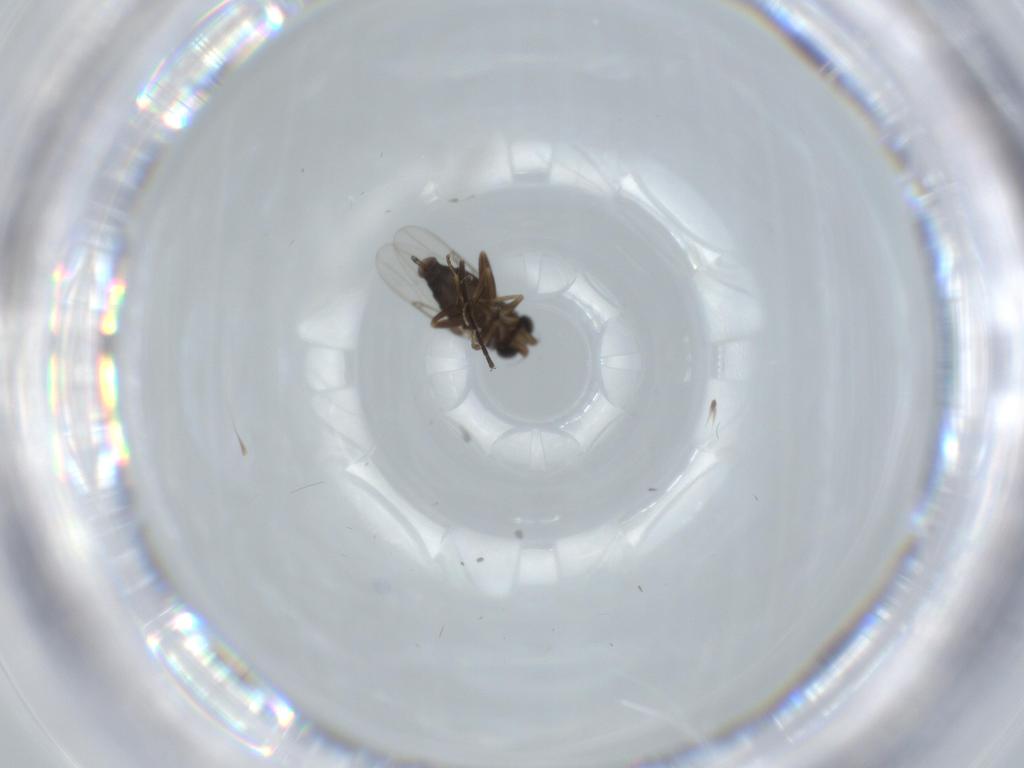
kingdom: Animalia
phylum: Arthropoda
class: Insecta
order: Diptera
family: Phoridae
